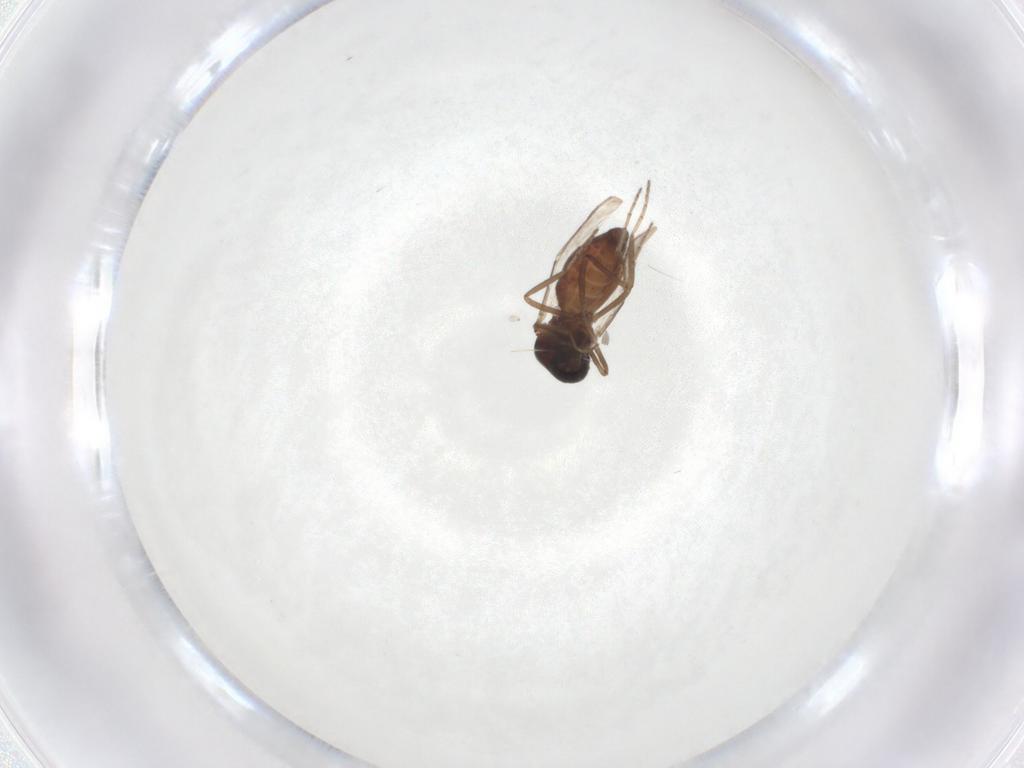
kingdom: Animalia
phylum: Arthropoda
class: Insecta
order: Diptera
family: Ceratopogonidae
